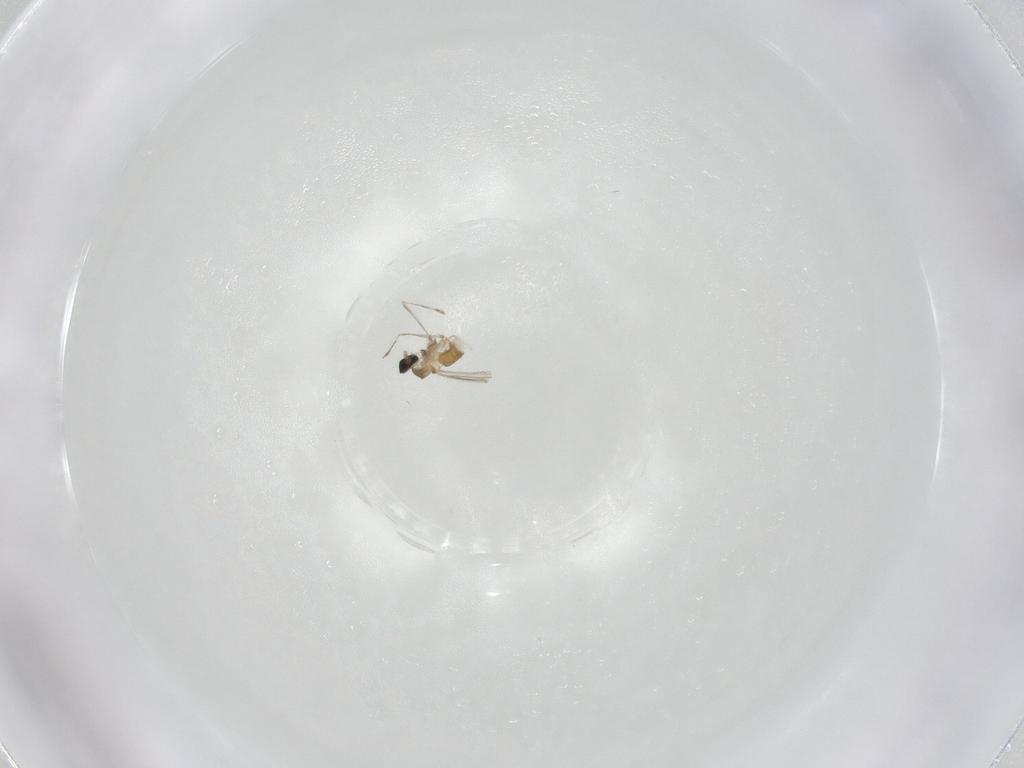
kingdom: Animalia
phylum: Arthropoda
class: Insecta
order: Diptera
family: Cecidomyiidae
